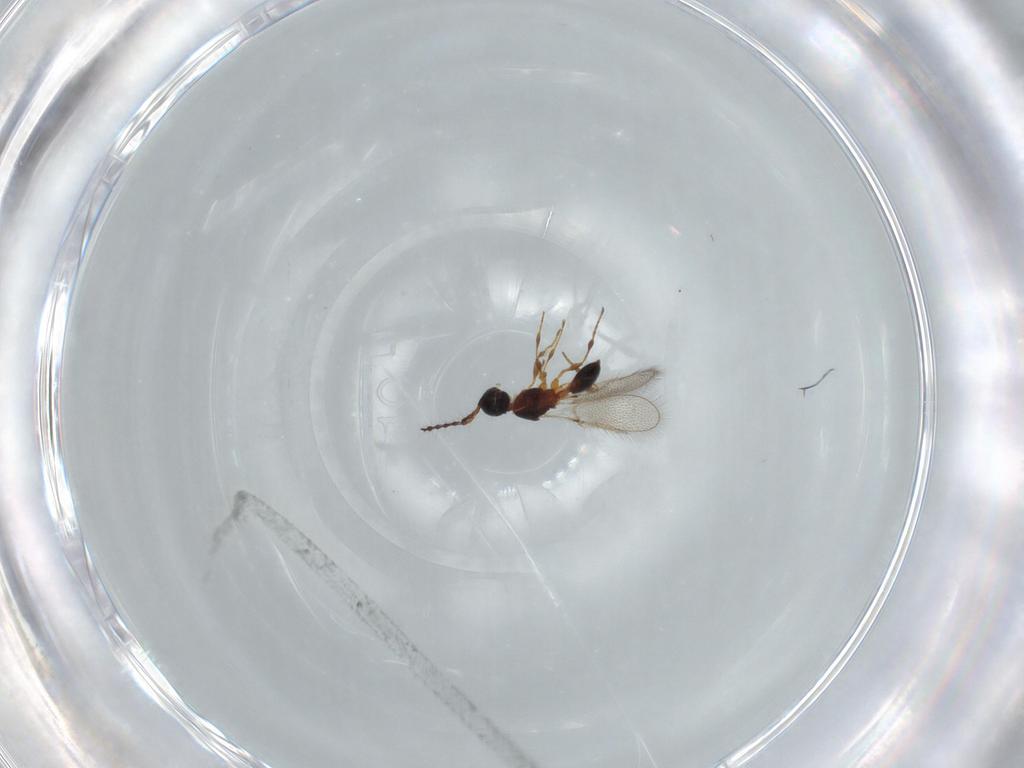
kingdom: Animalia
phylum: Arthropoda
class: Insecta
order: Hymenoptera
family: Diapriidae
